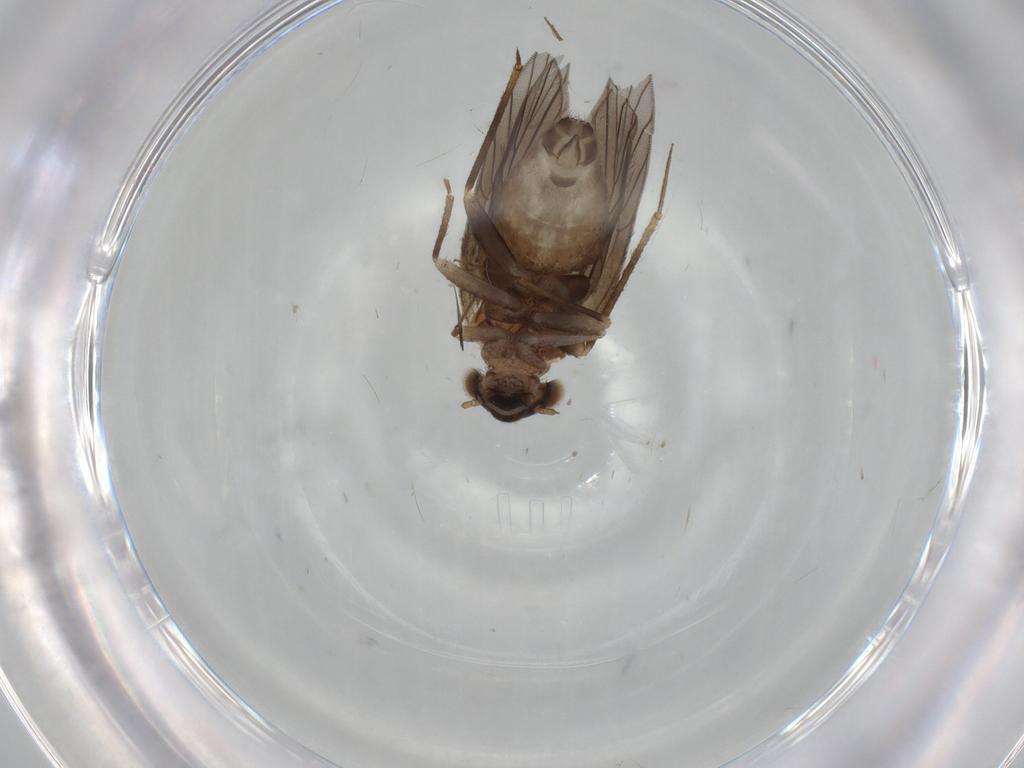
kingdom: Animalia
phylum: Arthropoda
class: Insecta
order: Psocodea
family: Lepidopsocidae
